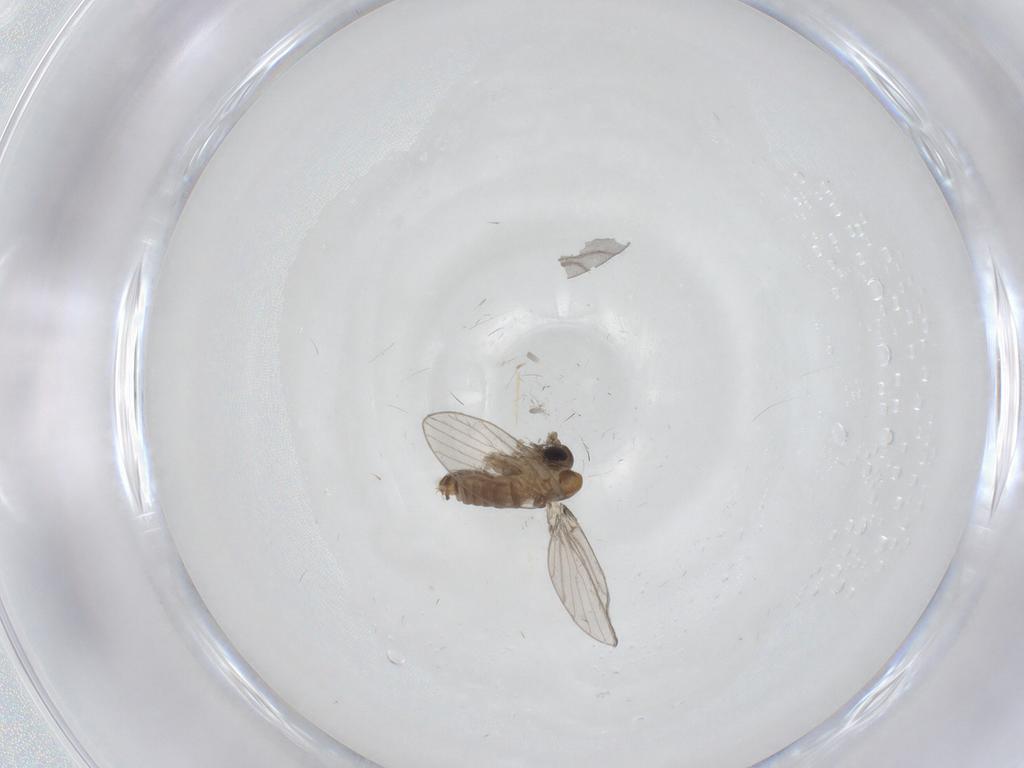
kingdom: Animalia
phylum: Arthropoda
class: Insecta
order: Diptera
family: Psychodidae
